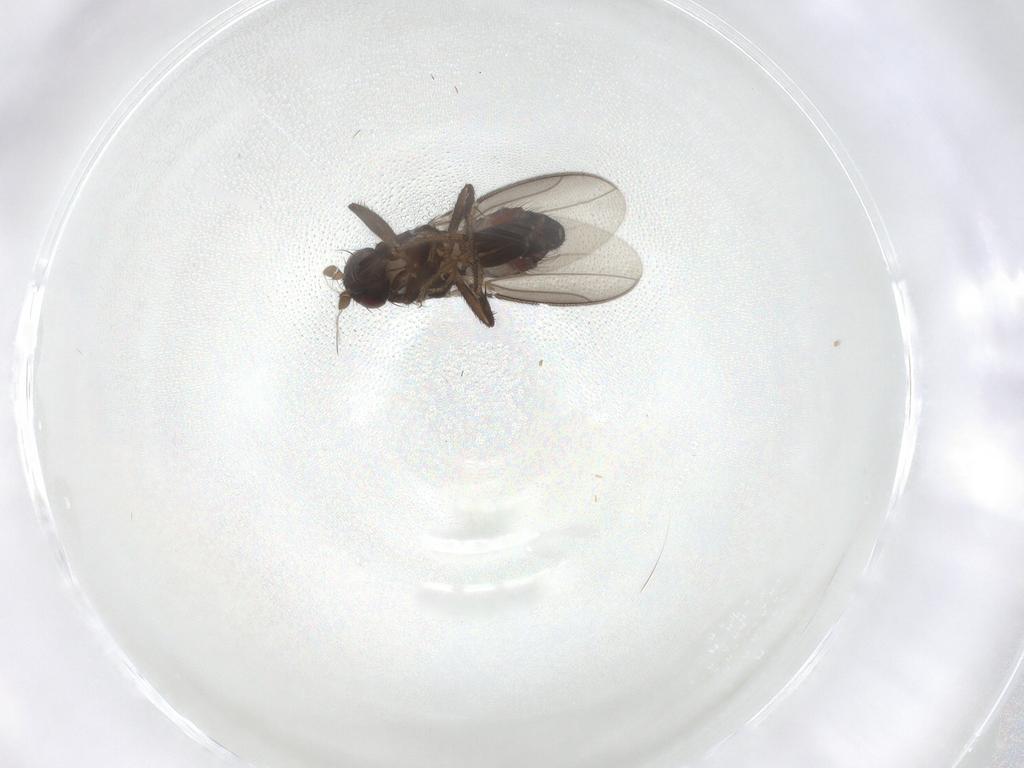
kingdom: Animalia
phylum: Arthropoda
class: Insecta
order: Diptera
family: Sphaeroceridae
